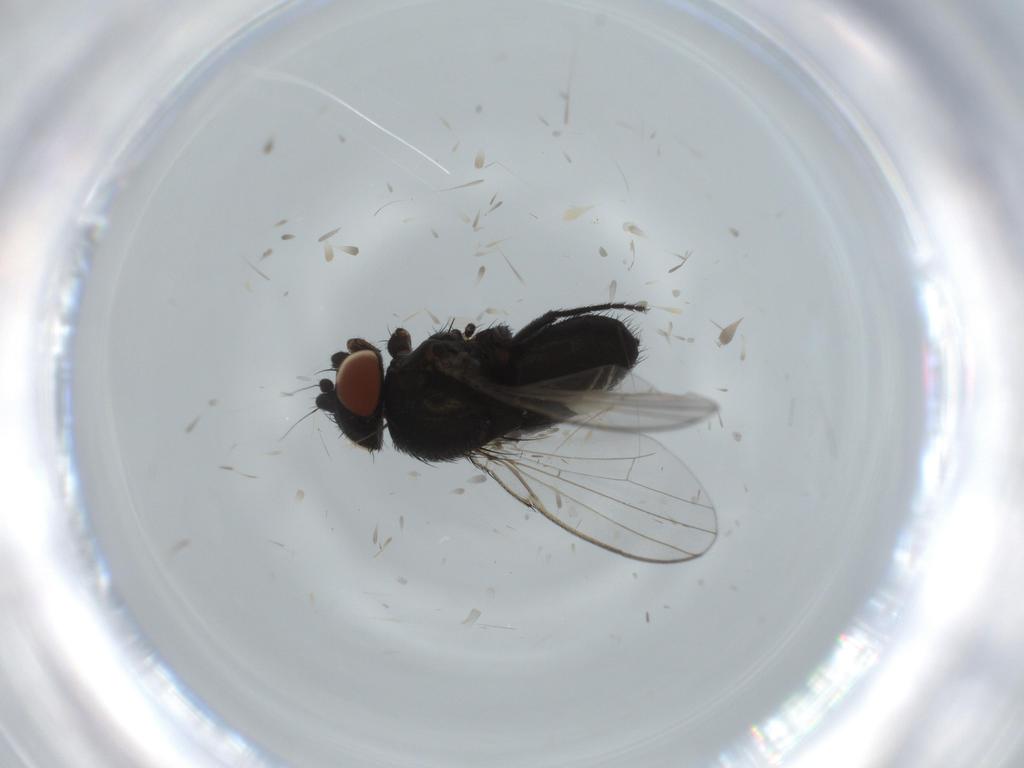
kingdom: Animalia
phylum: Arthropoda
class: Insecta
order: Diptera
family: Milichiidae
